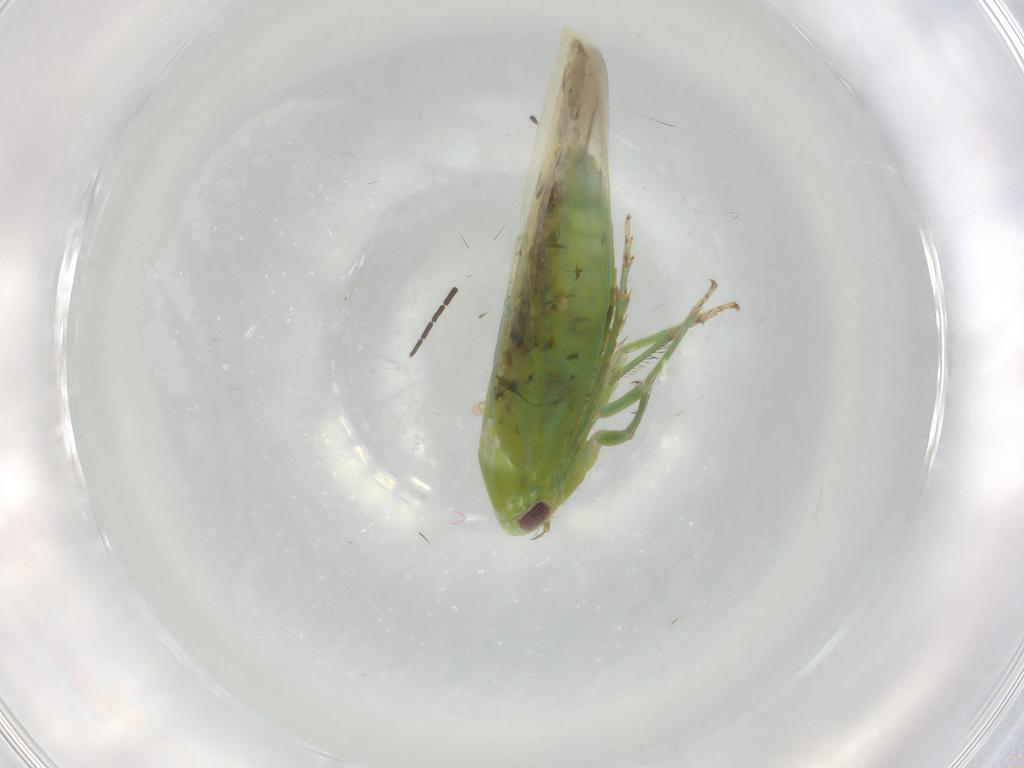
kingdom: Animalia
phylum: Arthropoda
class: Insecta
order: Hemiptera
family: Cicadellidae
